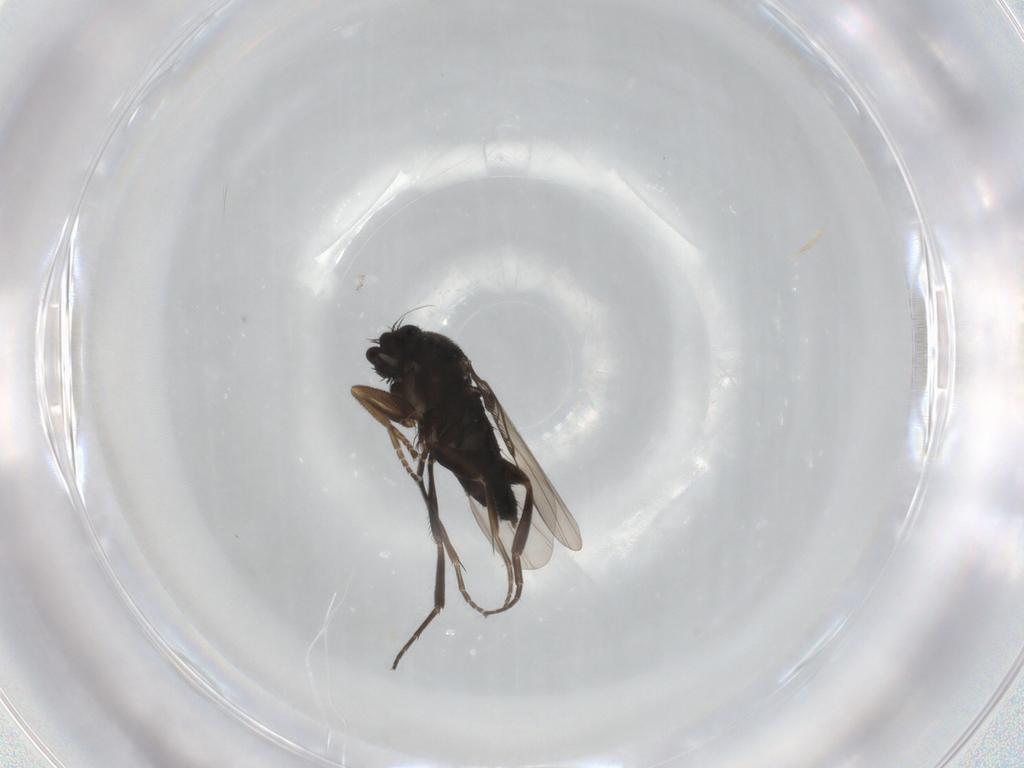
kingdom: Animalia
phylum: Arthropoda
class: Insecta
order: Diptera
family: Phoridae
